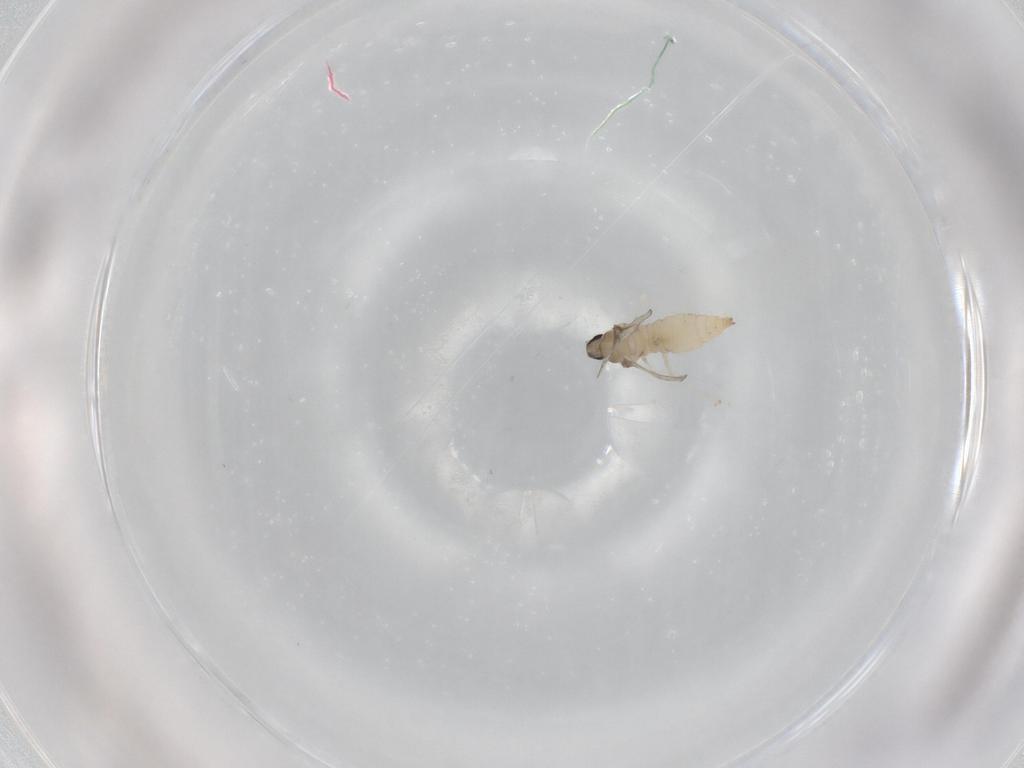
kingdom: Animalia
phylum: Arthropoda
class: Insecta
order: Diptera
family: Cecidomyiidae
